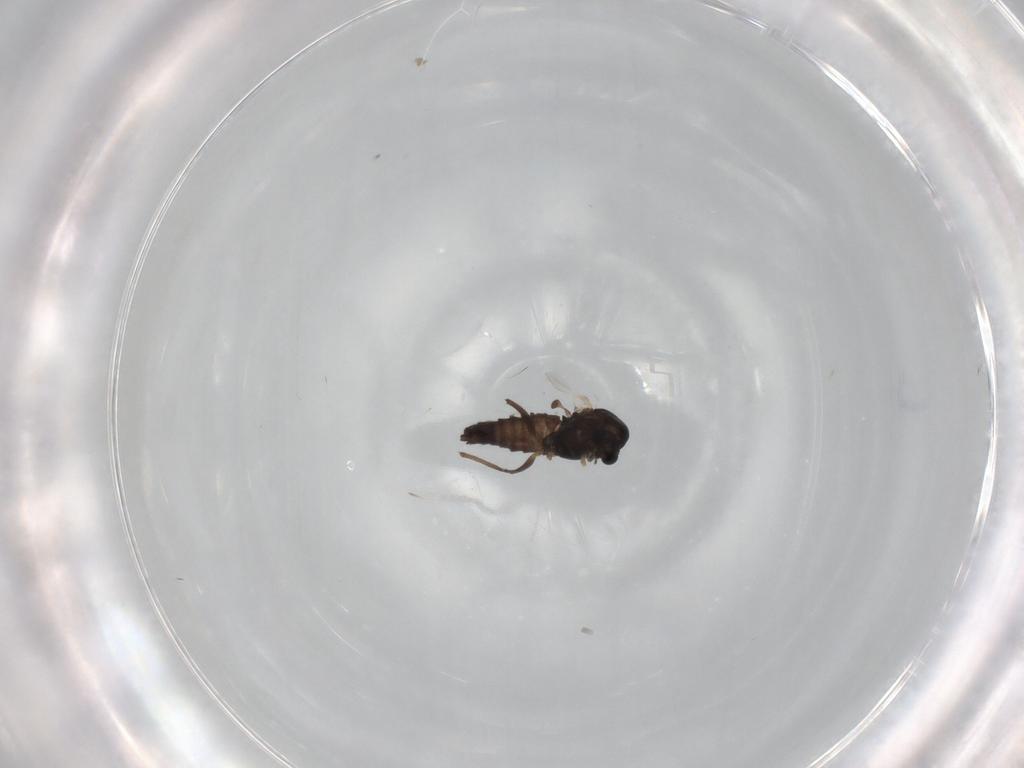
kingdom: Animalia
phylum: Arthropoda
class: Insecta
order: Diptera
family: Chironomidae
